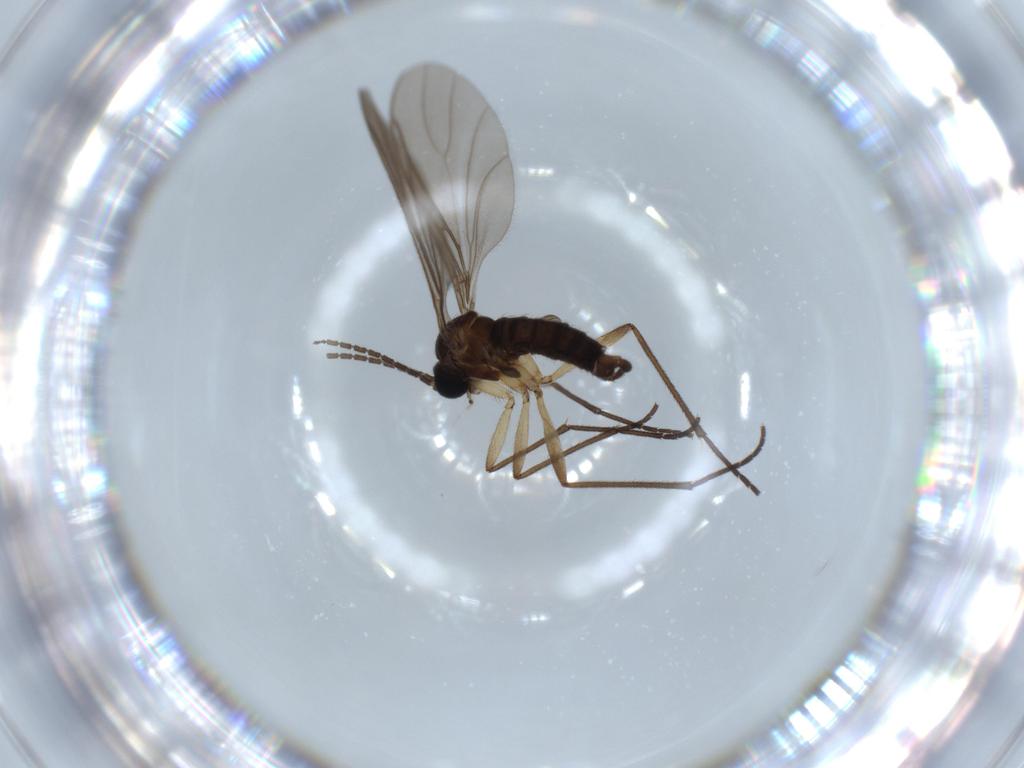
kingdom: Animalia
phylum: Arthropoda
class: Insecta
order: Diptera
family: Sciaridae
